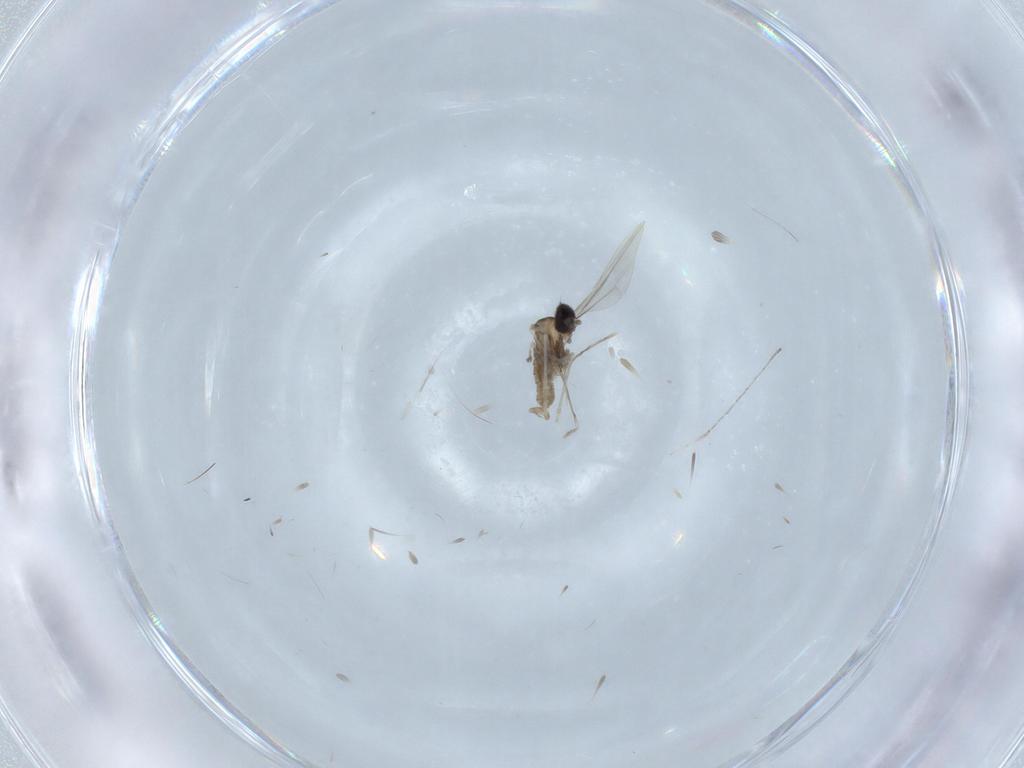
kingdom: Animalia
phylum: Arthropoda
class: Insecta
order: Diptera
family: Cecidomyiidae
